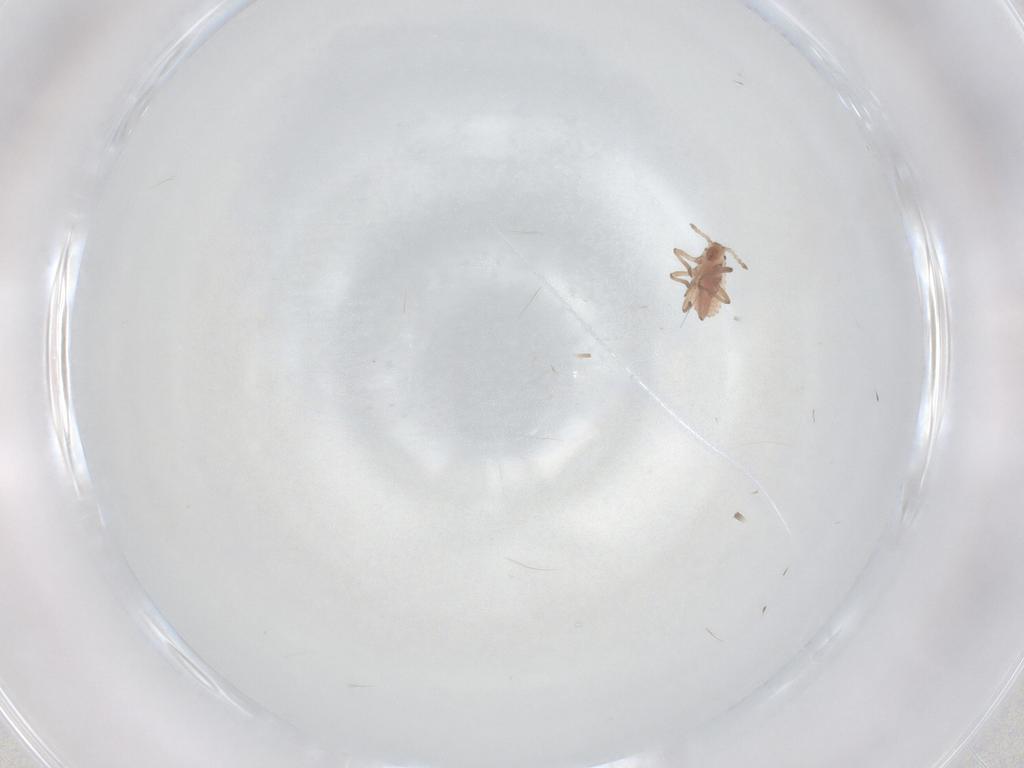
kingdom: Animalia
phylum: Arthropoda
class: Insecta
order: Hemiptera
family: Aphididae
